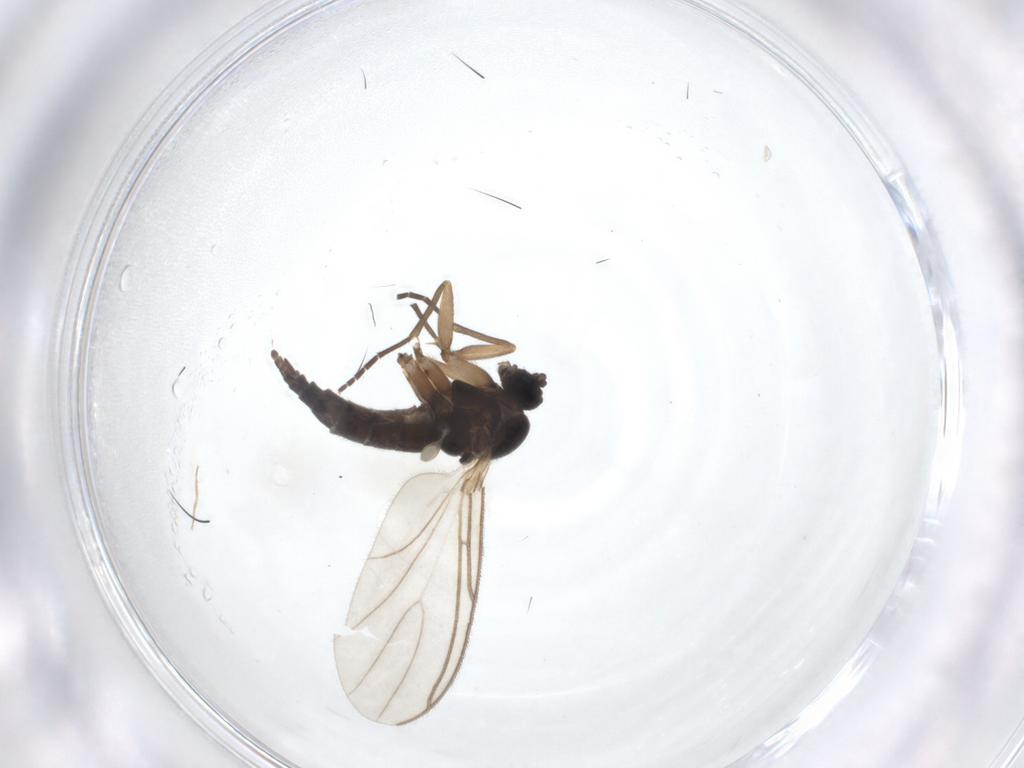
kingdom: Animalia
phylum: Arthropoda
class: Insecta
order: Diptera
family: Sciaridae
